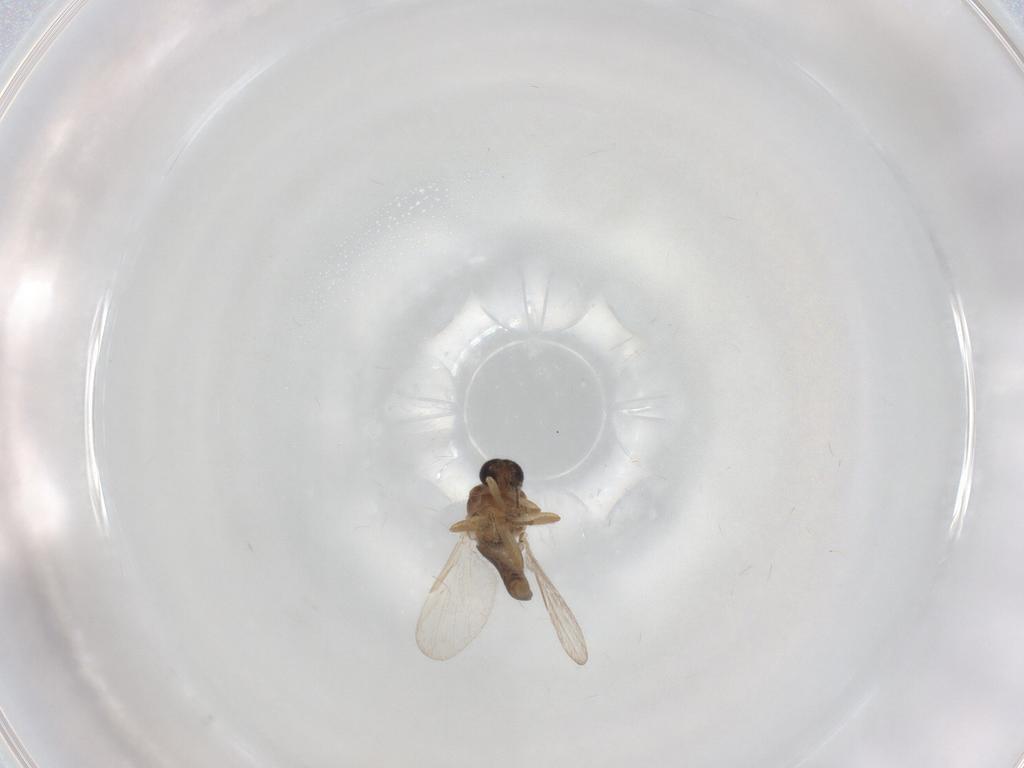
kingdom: Animalia
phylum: Arthropoda
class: Insecta
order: Diptera
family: Ceratopogonidae
